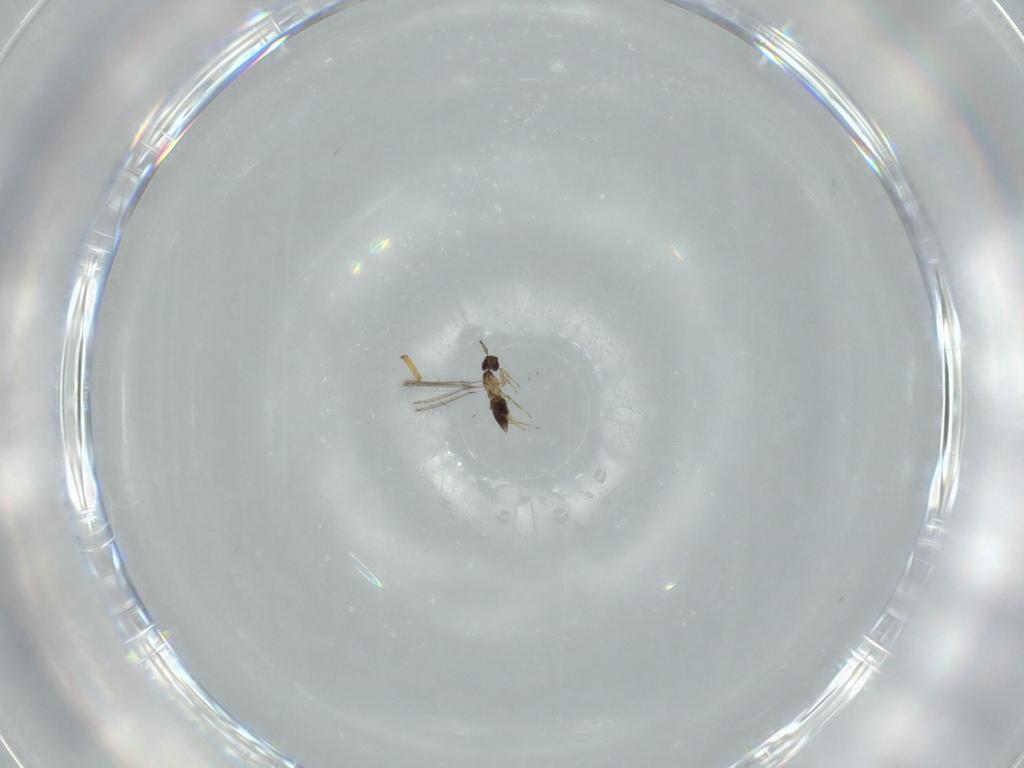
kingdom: Animalia
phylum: Arthropoda
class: Insecta
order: Hymenoptera
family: Mymaridae
